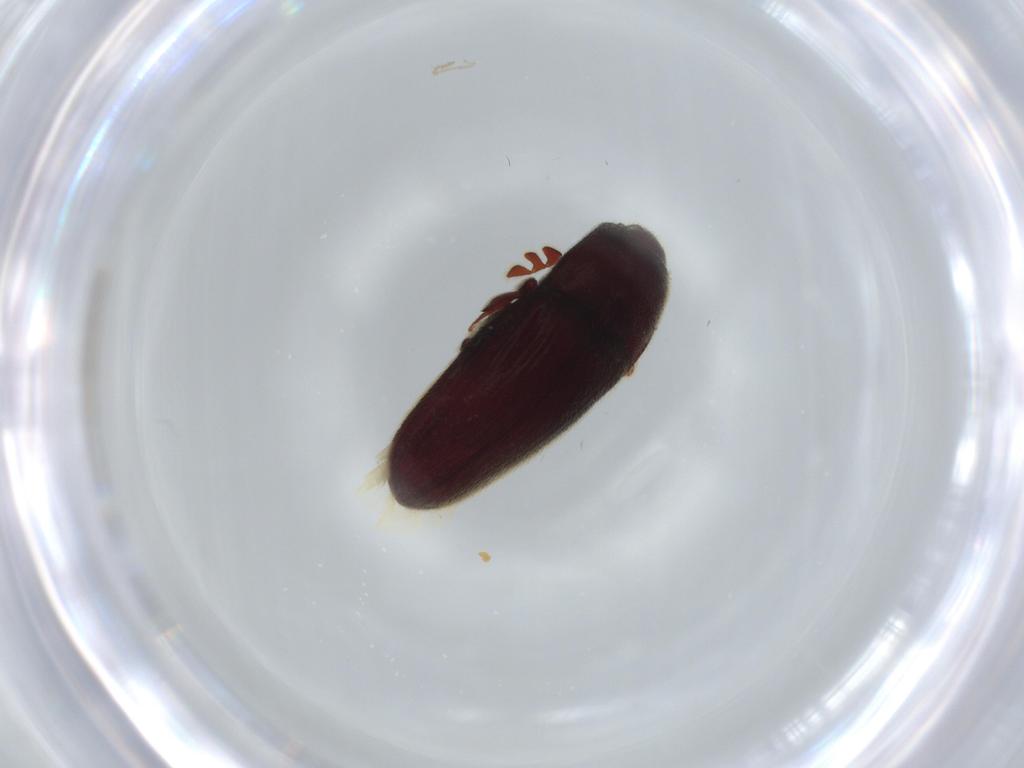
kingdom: Animalia
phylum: Arthropoda
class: Insecta
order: Coleoptera
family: Throscidae
